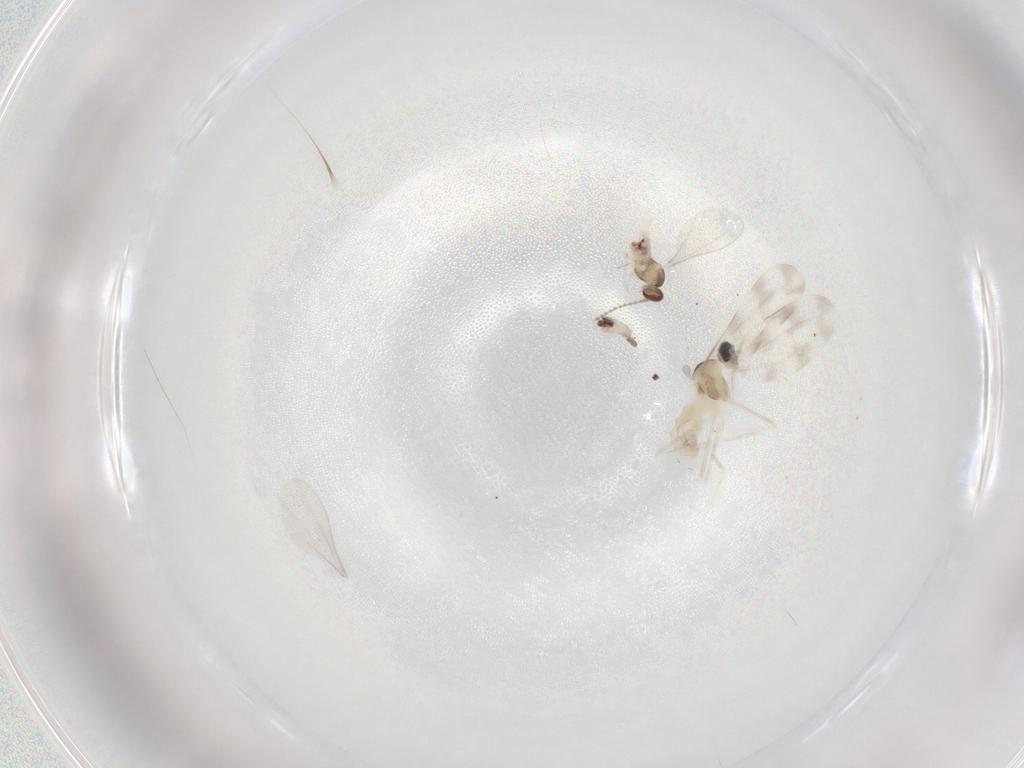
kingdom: Animalia
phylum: Arthropoda
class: Insecta
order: Diptera
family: Cecidomyiidae
